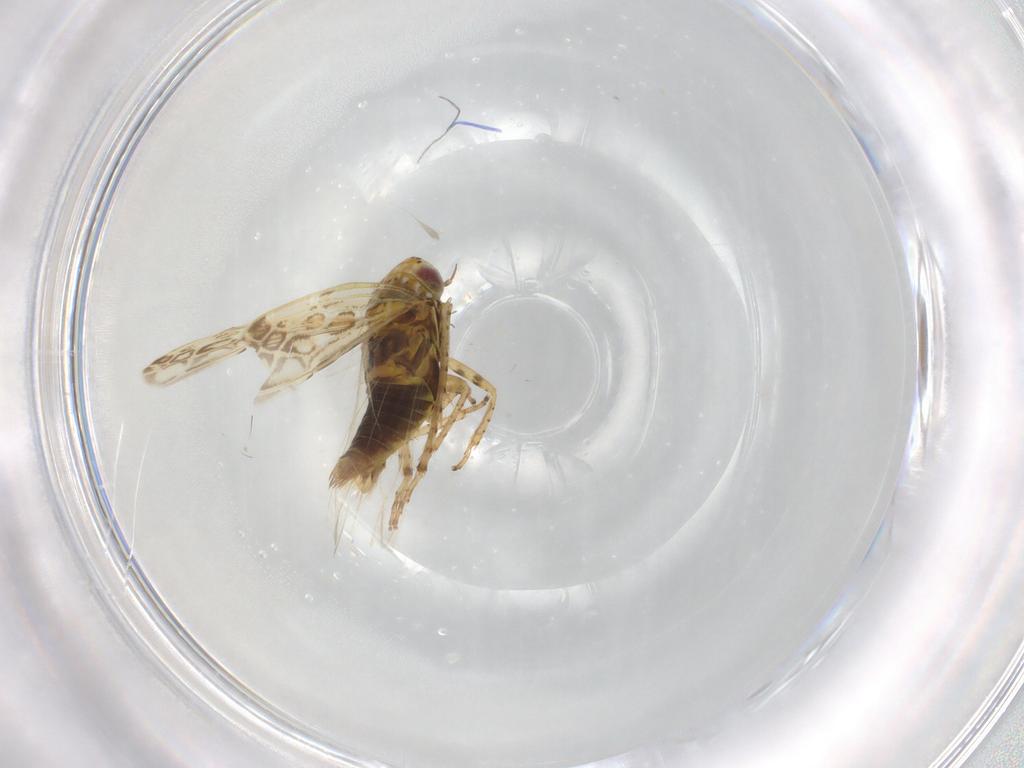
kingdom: Animalia
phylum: Arthropoda
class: Insecta
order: Hemiptera
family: Cicadellidae
